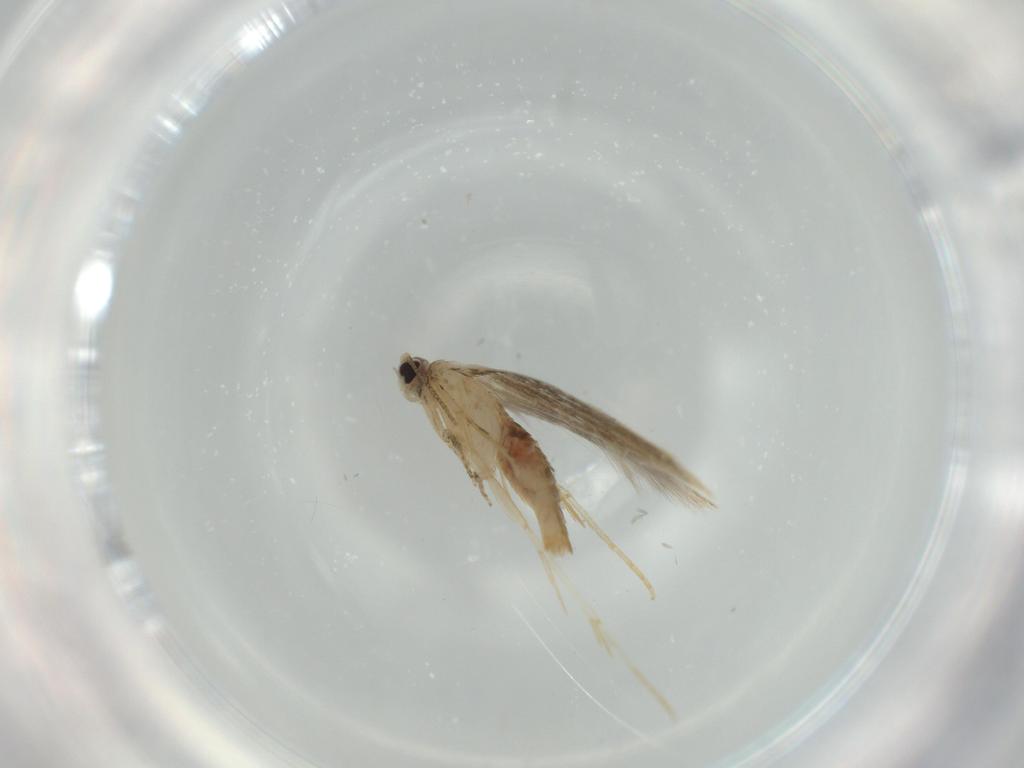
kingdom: Animalia
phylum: Arthropoda
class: Insecta
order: Lepidoptera
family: Tineidae
